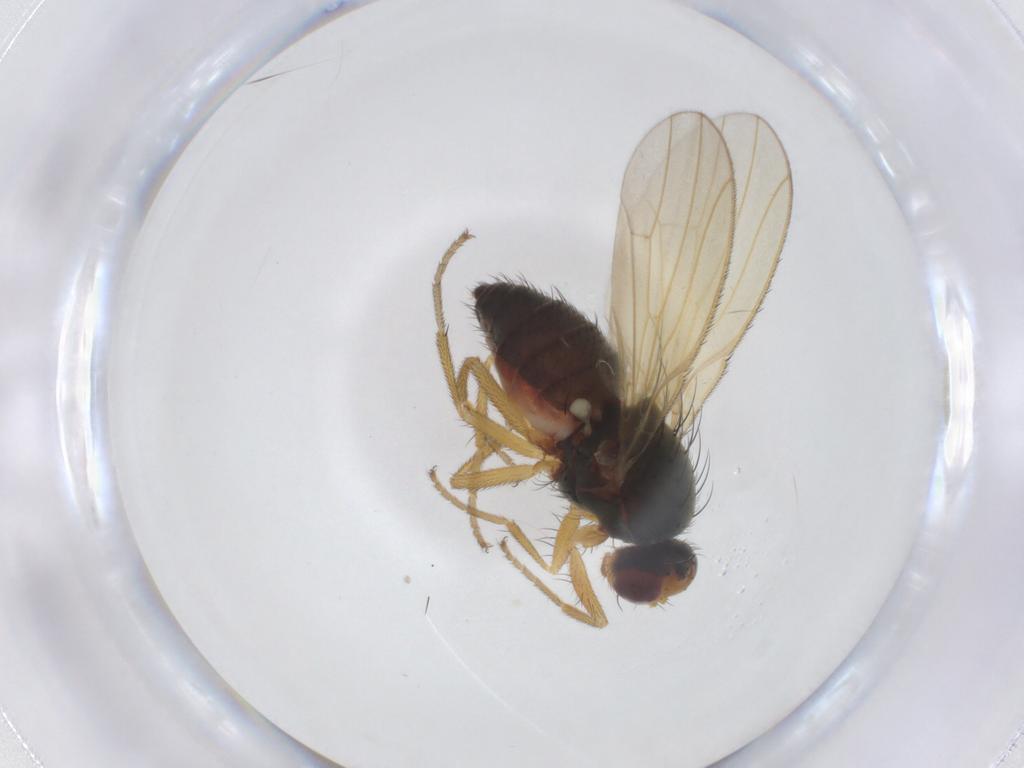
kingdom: Animalia
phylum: Arthropoda
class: Insecta
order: Diptera
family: Heleomyzidae
